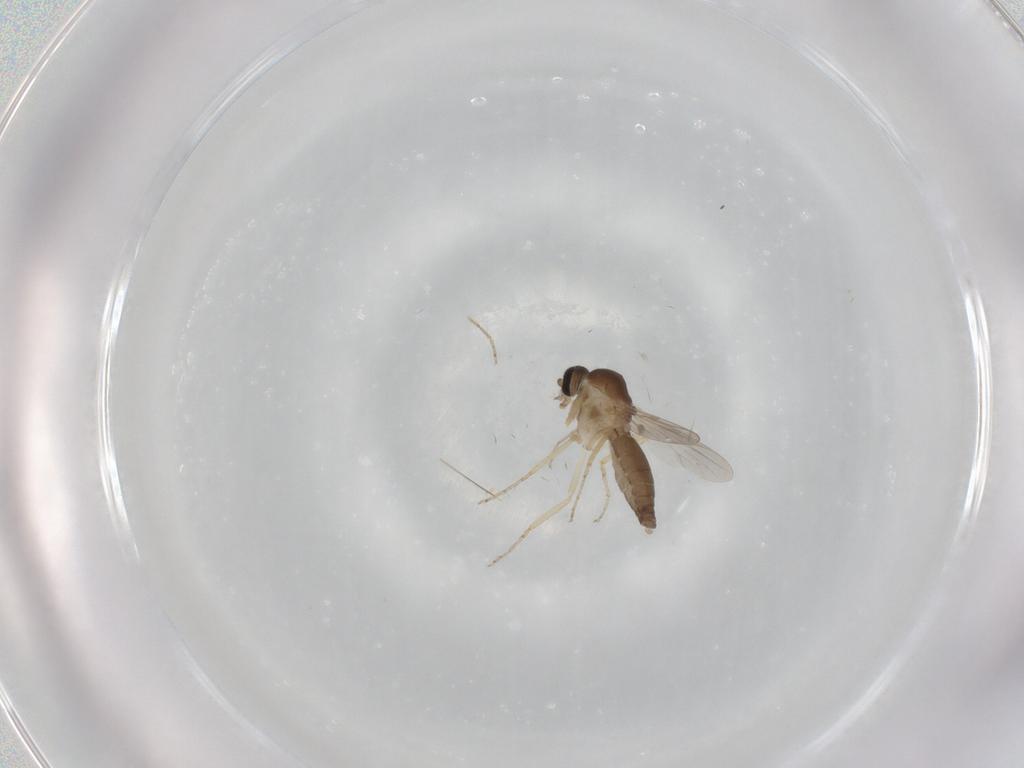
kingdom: Animalia
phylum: Arthropoda
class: Insecta
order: Diptera
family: Ceratopogonidae
